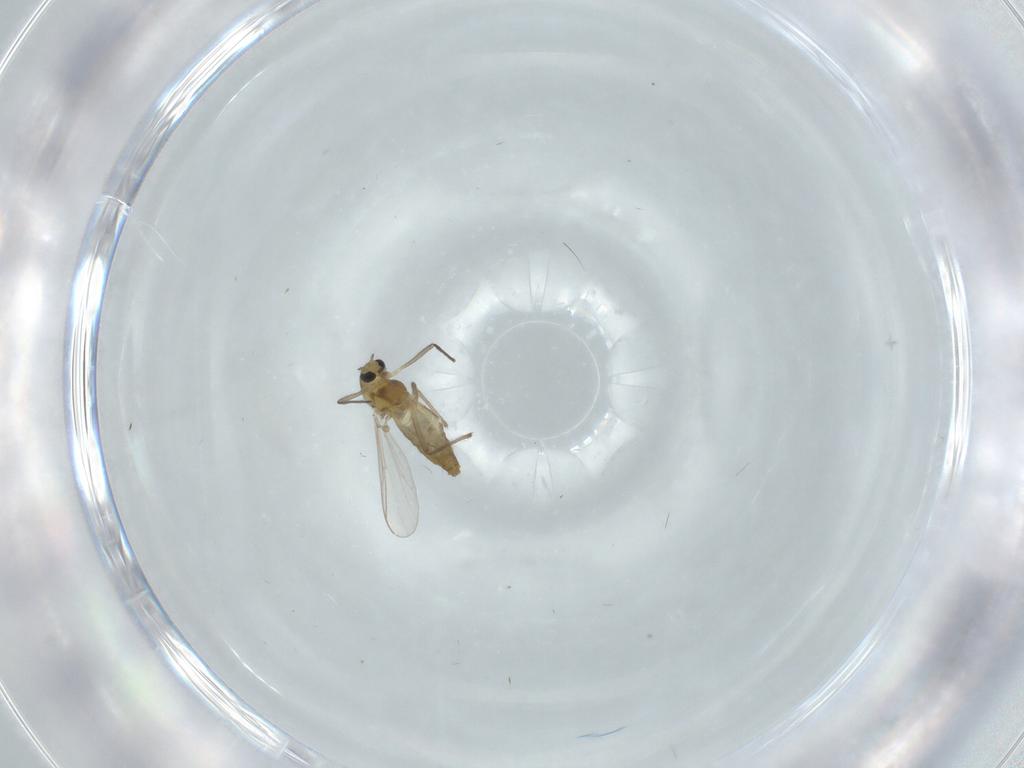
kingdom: Animalia
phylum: Arthropoda
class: Insecta
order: Diptera
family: Chironomidae
